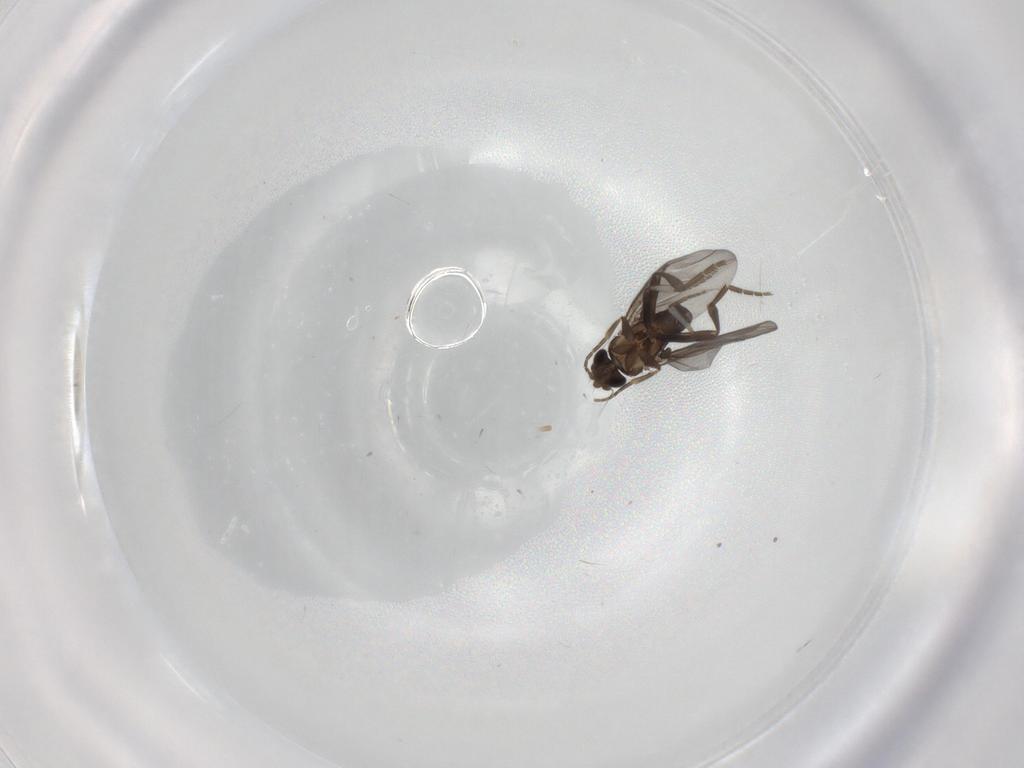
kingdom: Animalia
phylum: Arthropoda
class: Insecta
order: Diptera
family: Phoridae
